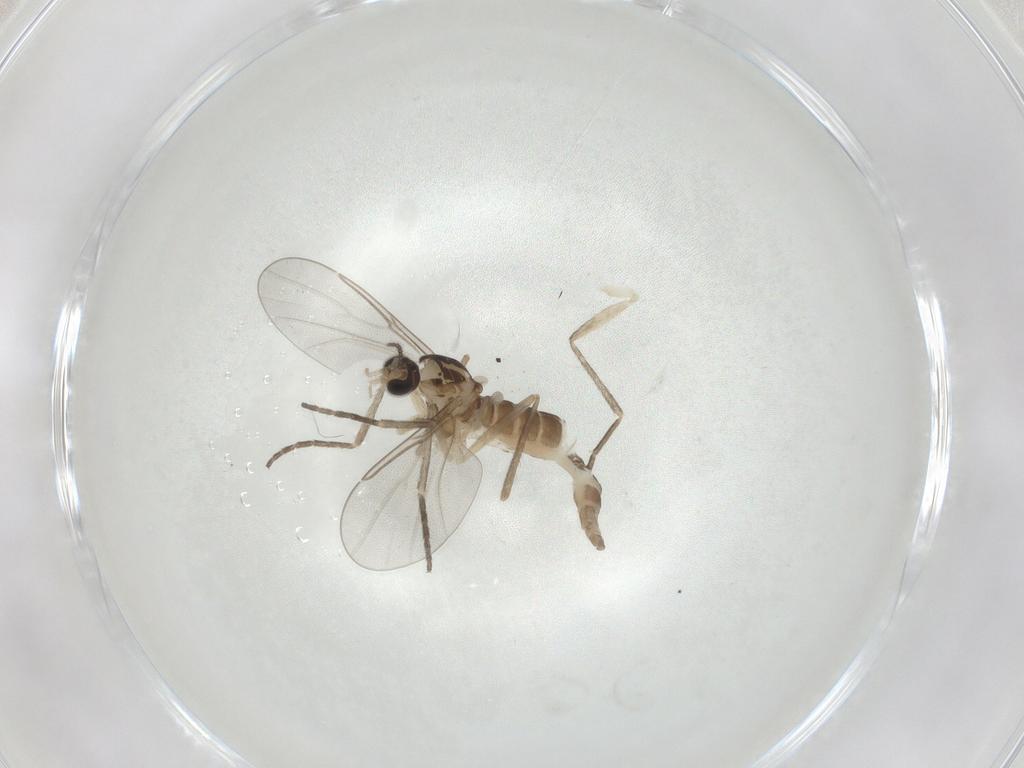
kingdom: Animalia
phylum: Arthropoda
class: Insecta
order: Diptera
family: Cecidomyiidae
